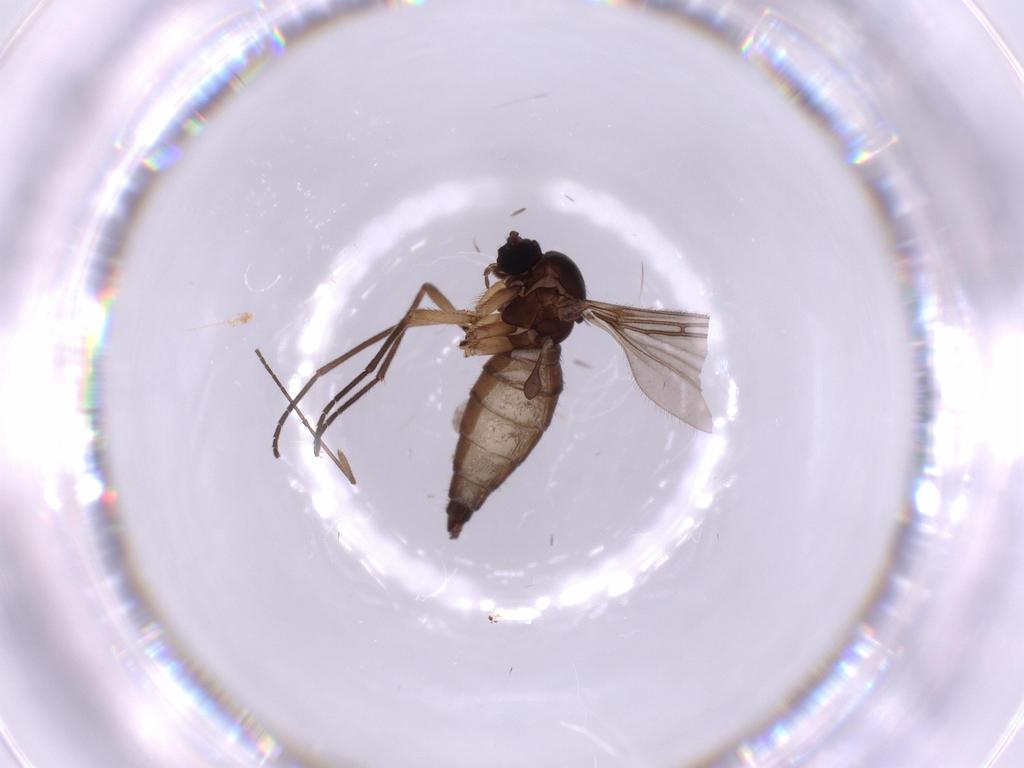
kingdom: Animalia
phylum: Arthropoda
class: Insecta
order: Diptera
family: Sciaridae
